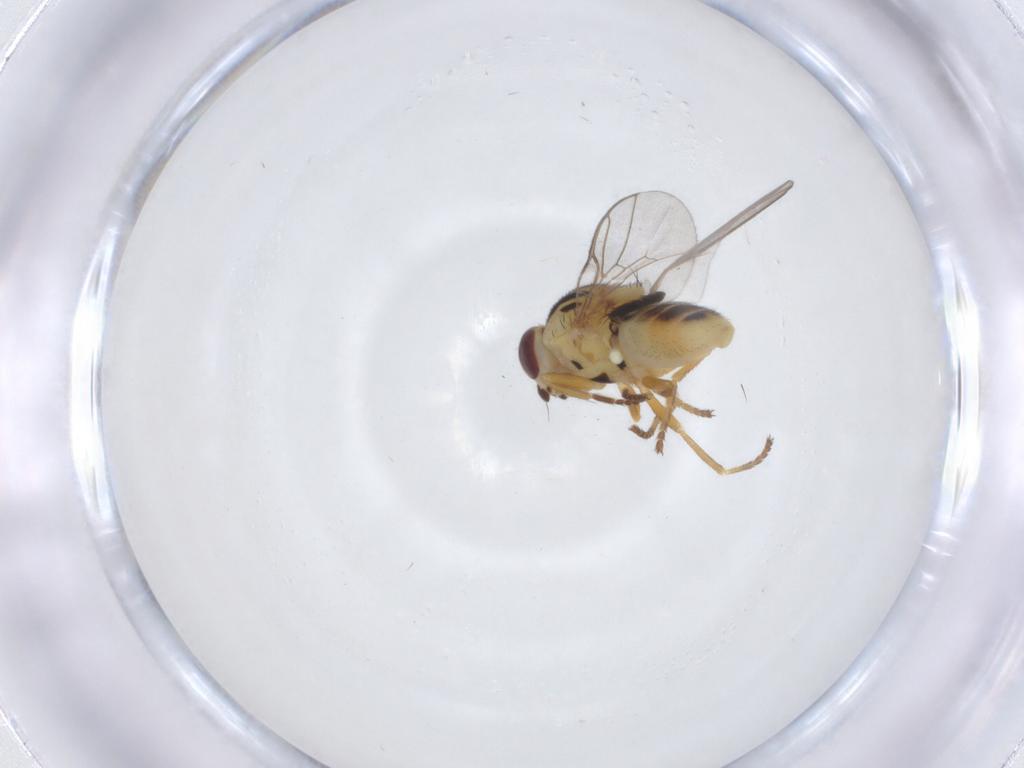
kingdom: Animalia
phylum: Arthropoda
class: Insecta
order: Diptera
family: Chloropidae
